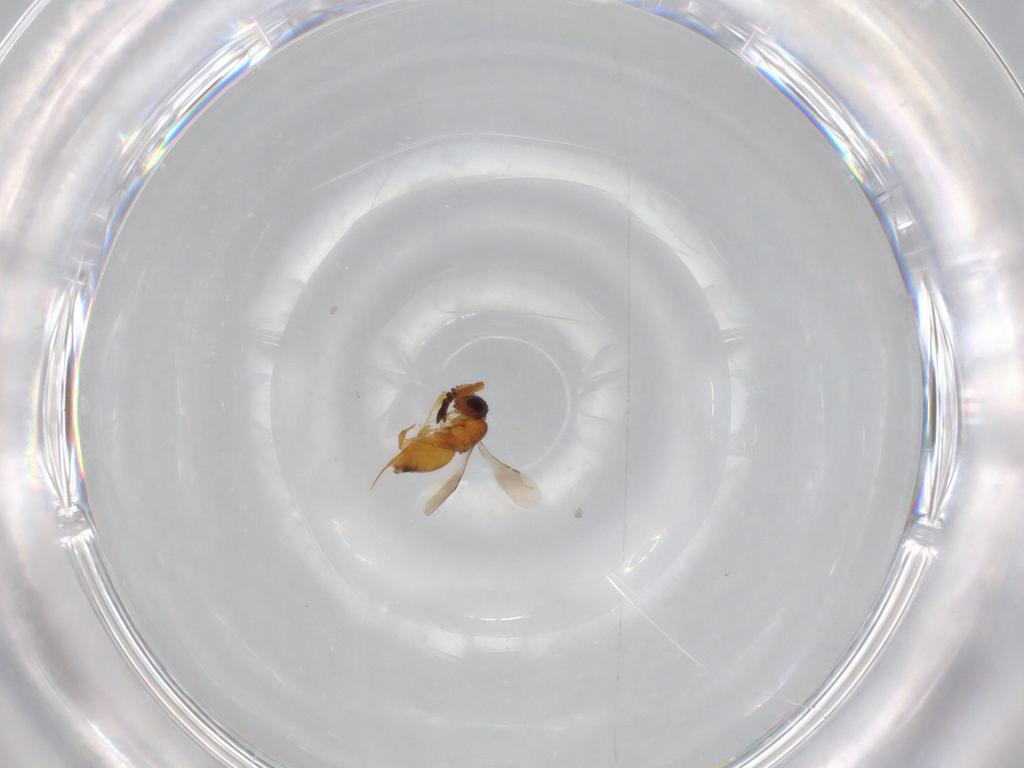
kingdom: Animalia
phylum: Arthropoda
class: Insecta
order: Hymenoptera
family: Ceraphronidae
